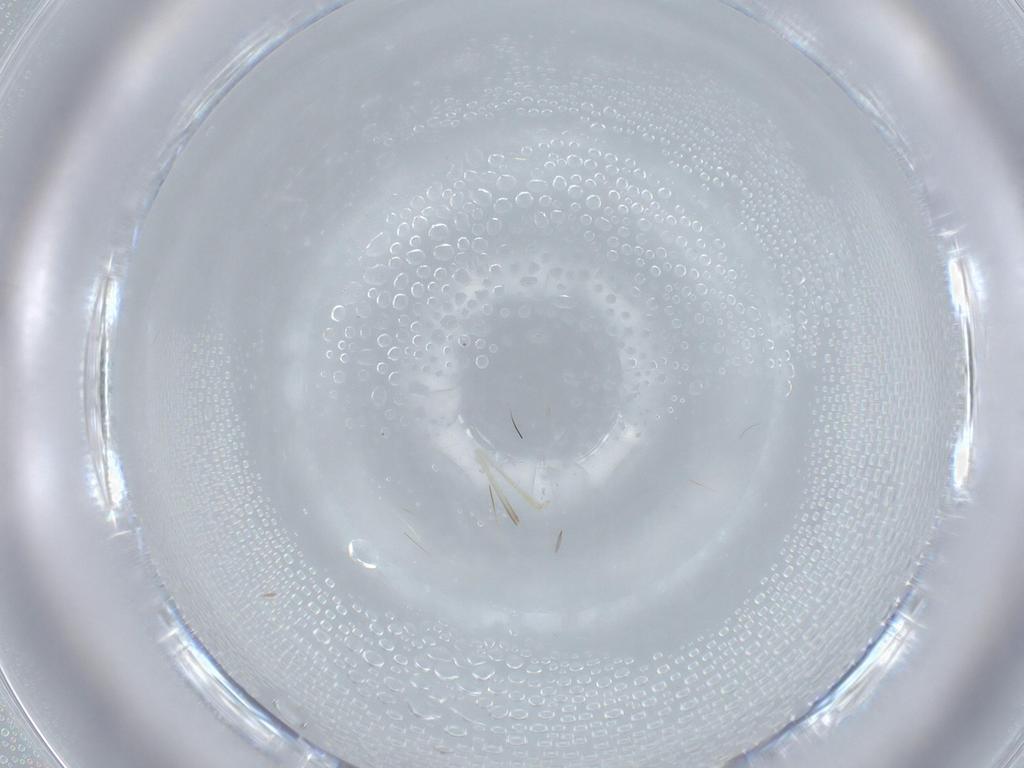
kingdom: Animalia
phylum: Arthropoda
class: Insecta
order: Diptera
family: Cecidomyiidae
